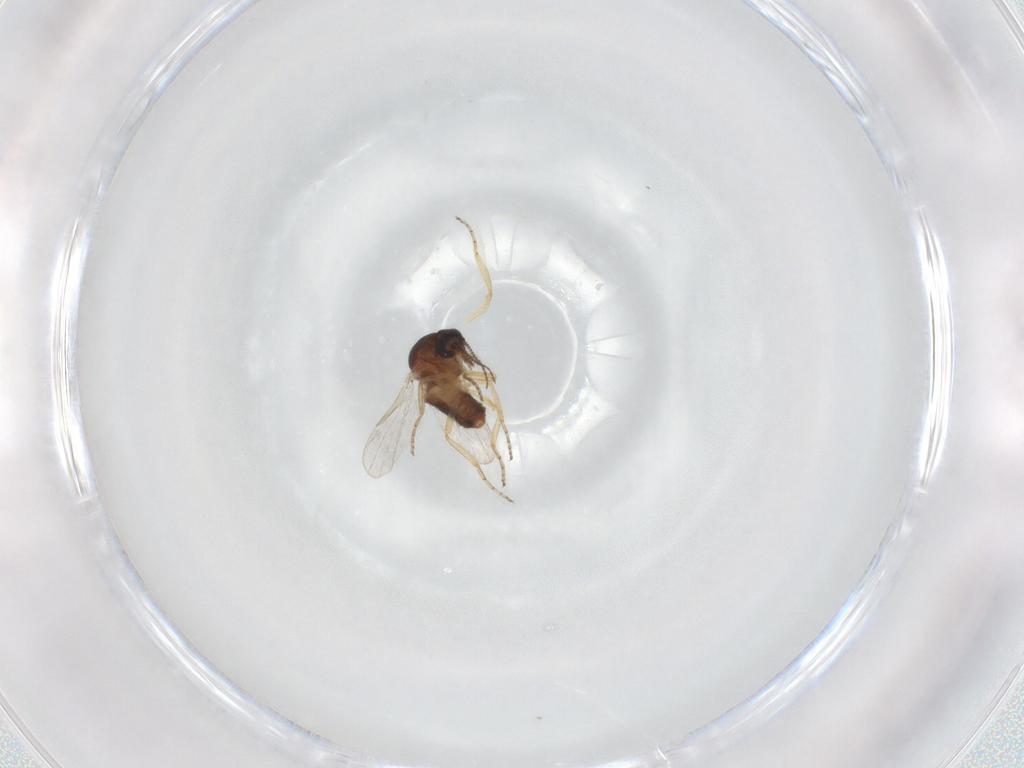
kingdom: Animalia
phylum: Arthropoda
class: Insecta
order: Diptera
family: Ceratopogonidae
